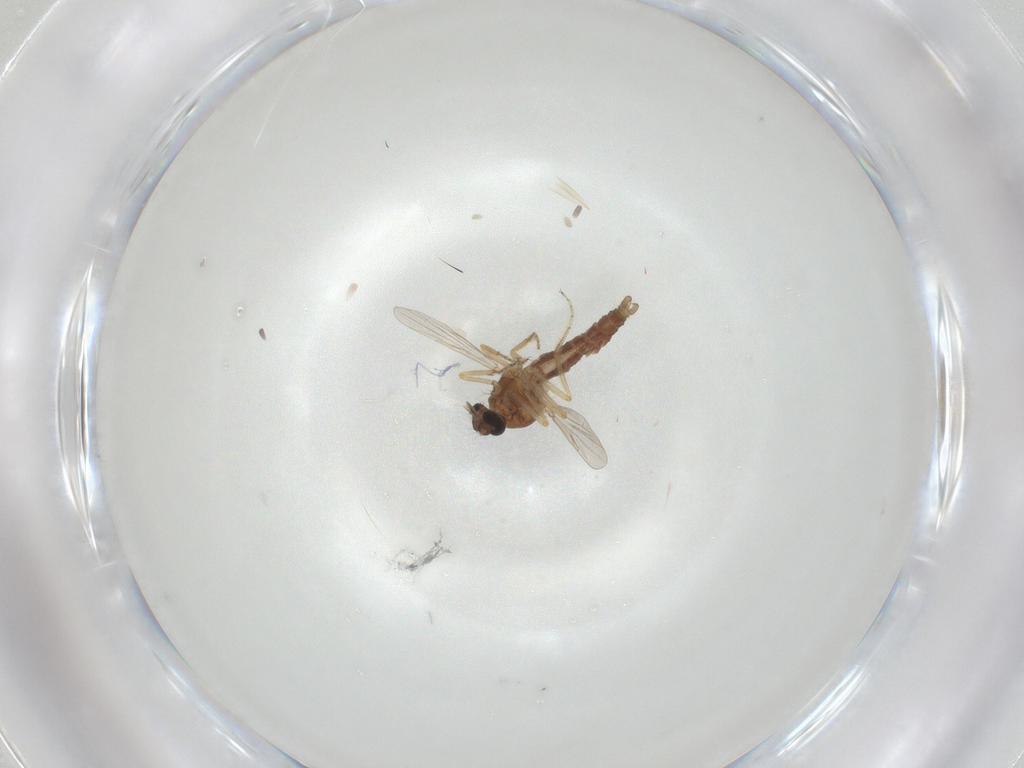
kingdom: Animalia
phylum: Arthropoda
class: Insecta
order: Diptera
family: Ceratopogonidae
